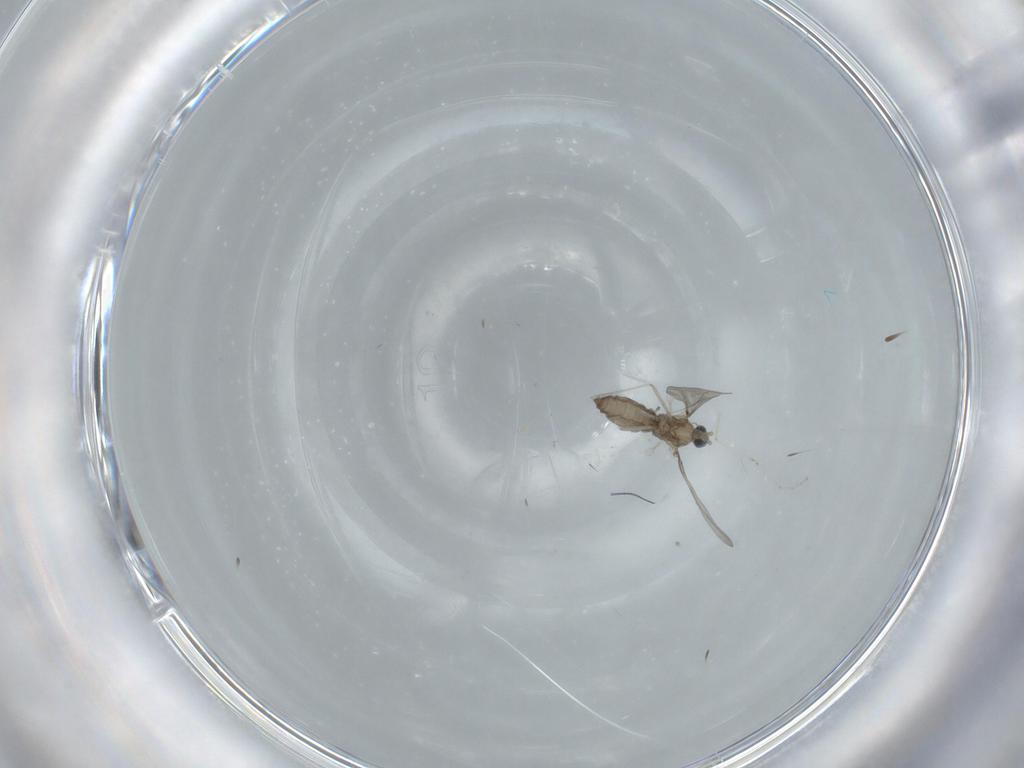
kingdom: Animalia
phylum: Arthropoda
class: Insecta
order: Diptera
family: Cecidomyiidae
